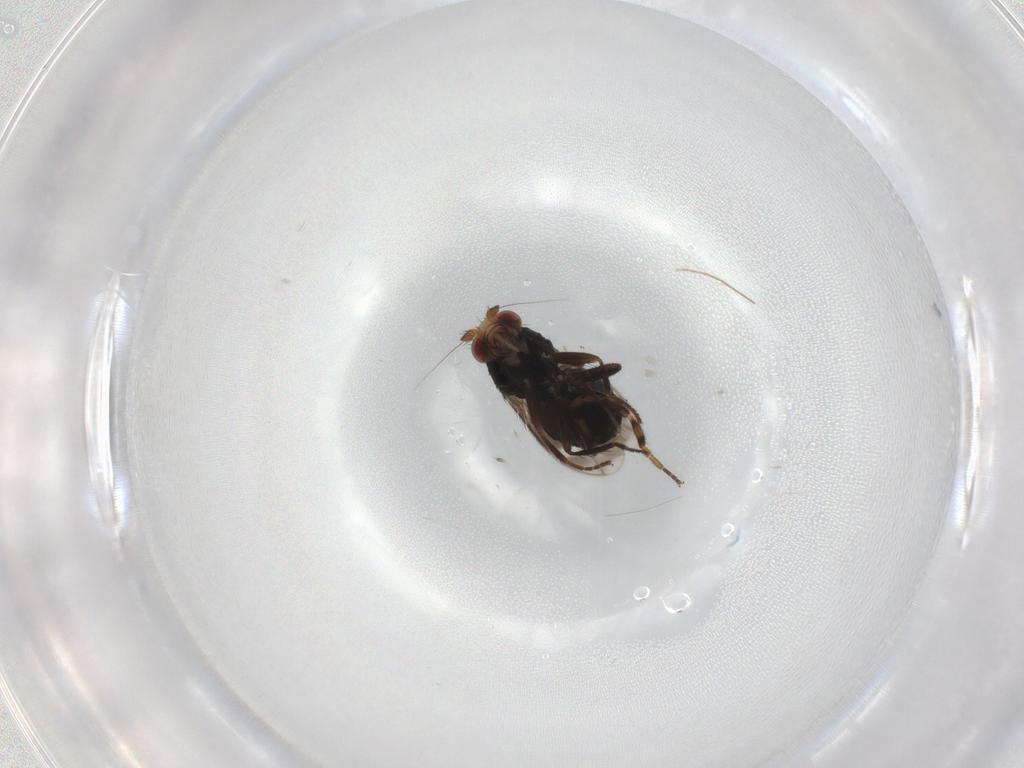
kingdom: Animalia
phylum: Arthropoda
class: Insecta
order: Diptera
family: Sphaeroceridae
